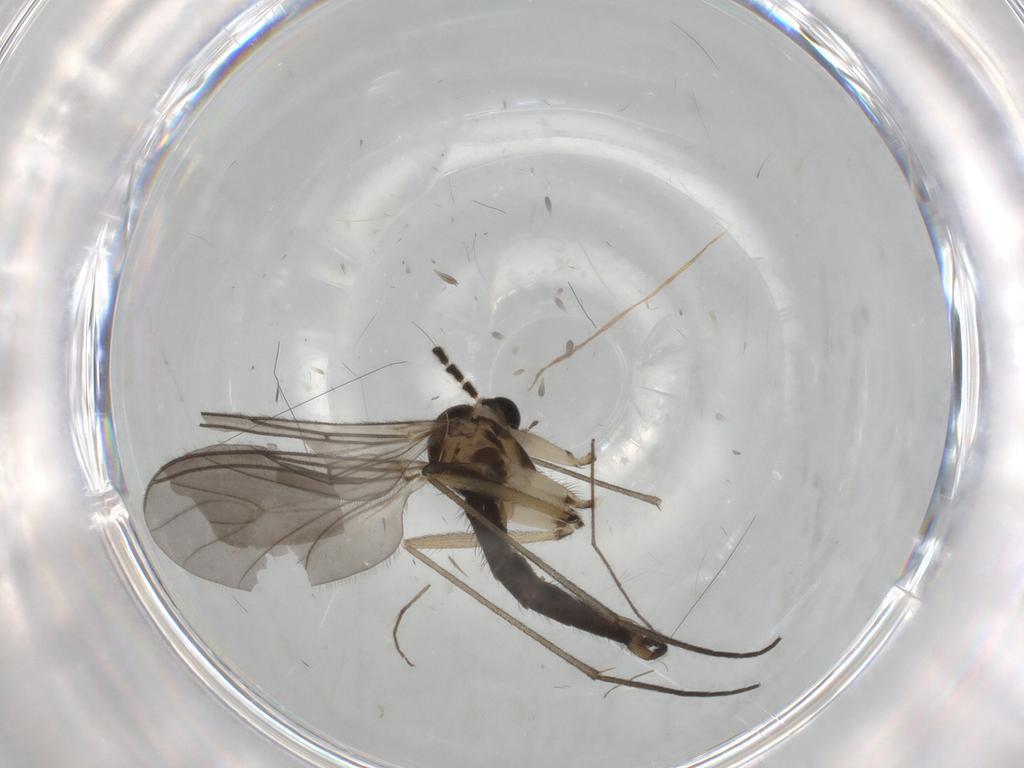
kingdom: Animalia
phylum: Arthropoda
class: Insecta
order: Diptera
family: Sciaridae
